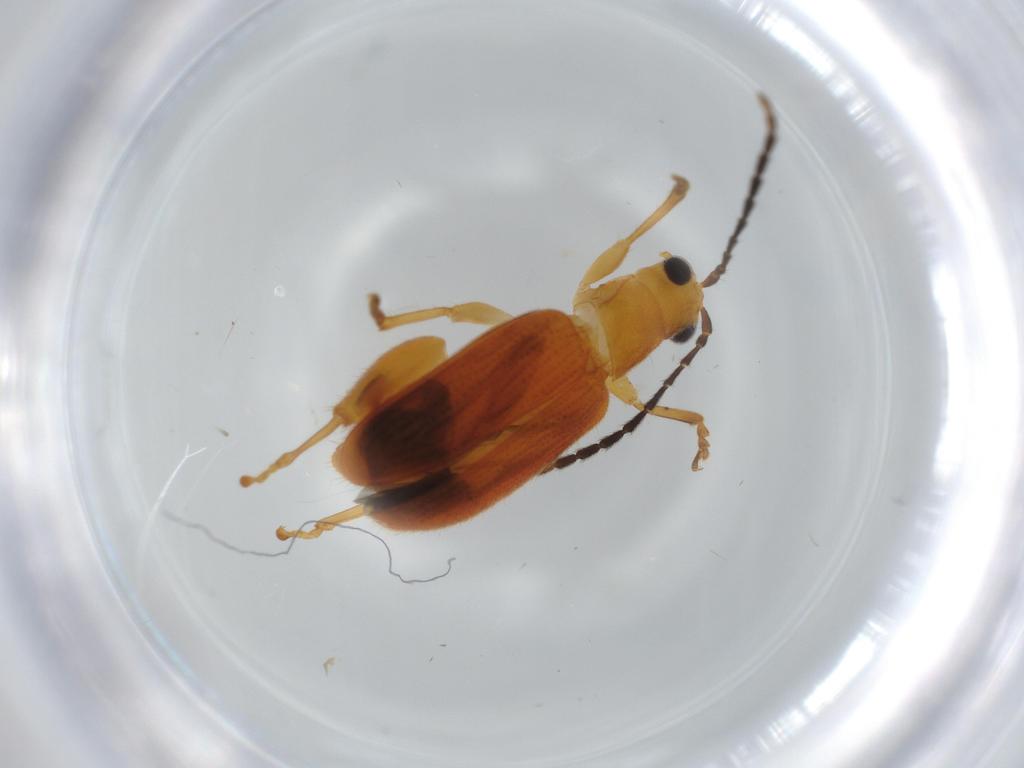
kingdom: Animalia
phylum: Arthropoda
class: Insecta
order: Coleoptera
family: Chrysomelidae
